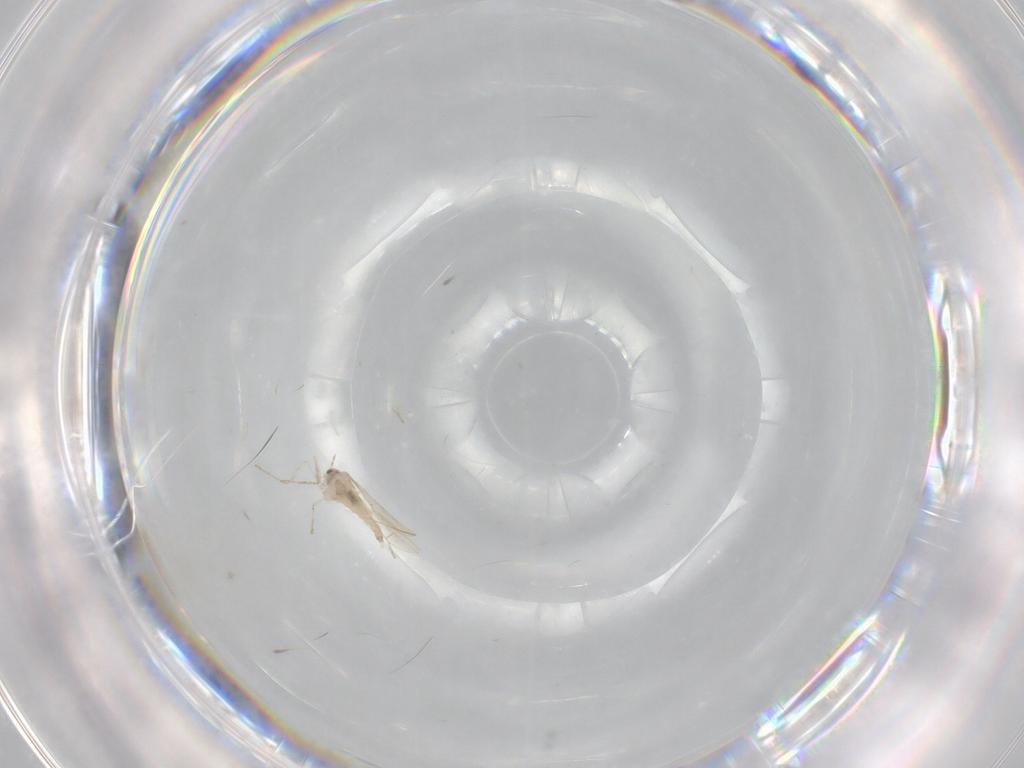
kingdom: Animalia
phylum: Arthropoda
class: Insecta
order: Diptera
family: Cecidomyiidae
